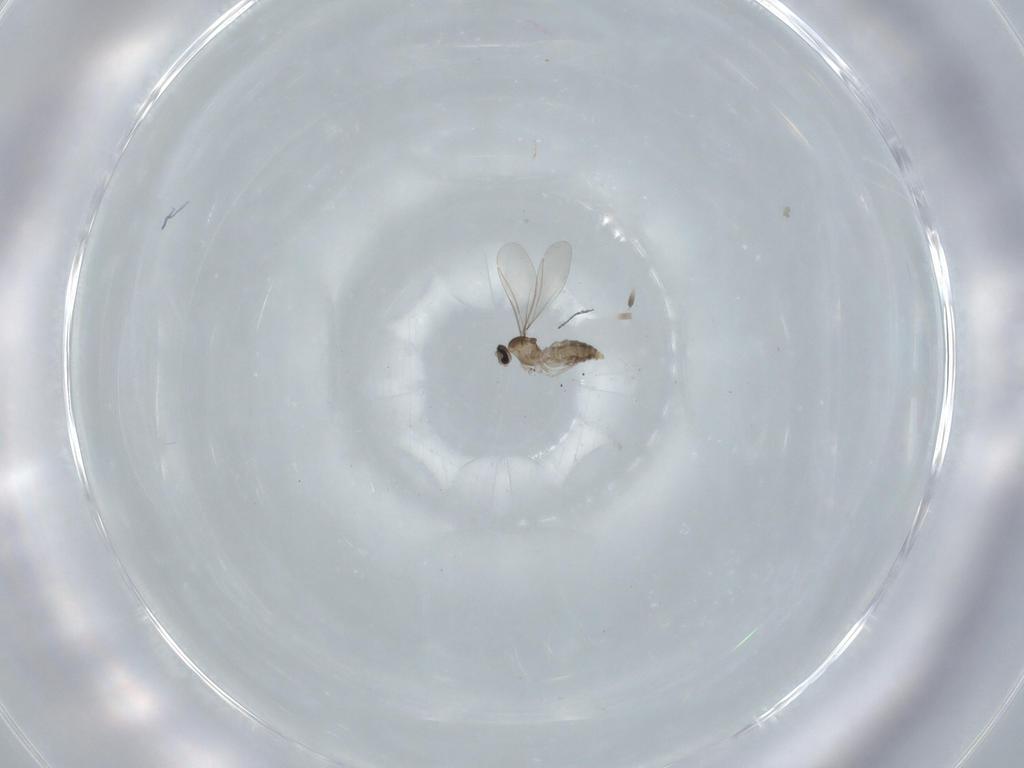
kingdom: Animalia
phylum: Arthropoda
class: Insecta
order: Diptera
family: Cecidomyiidae
